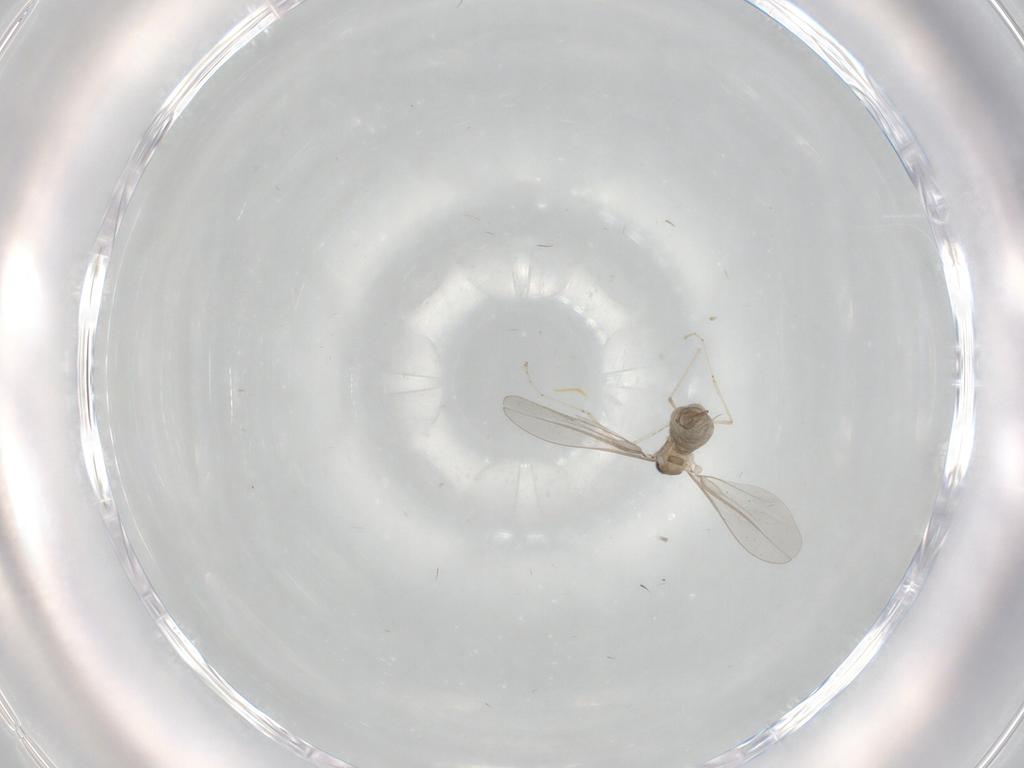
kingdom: Animalia
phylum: Arthropoda
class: Insecta
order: Diptera
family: Cecidomyiidae
